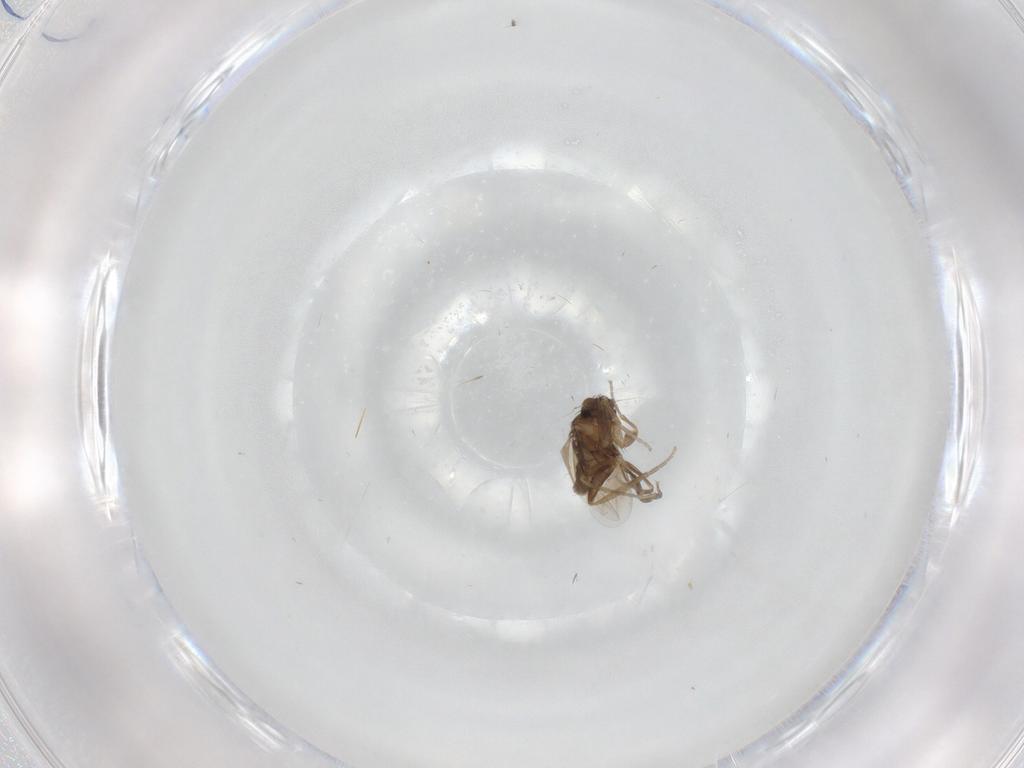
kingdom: Animalia
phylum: Arthropoda
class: Insecta
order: Diptera
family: Phoridae
